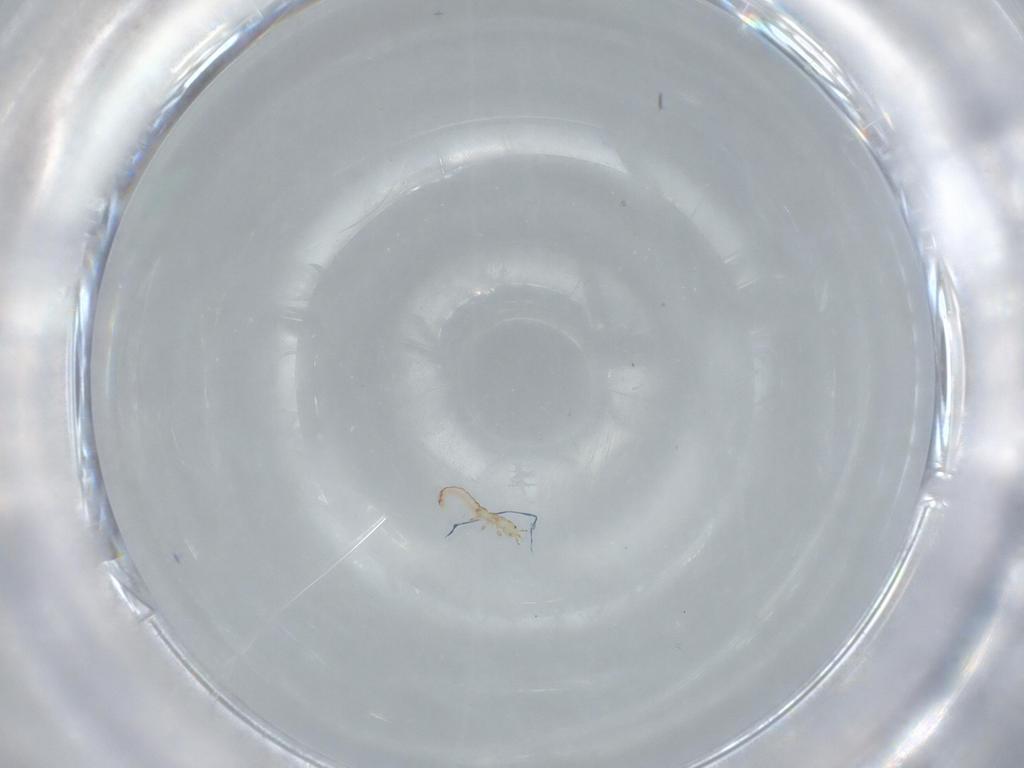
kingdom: Animalia
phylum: Arthropoda
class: Insecta
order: Neuroptera
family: Mantispidae
